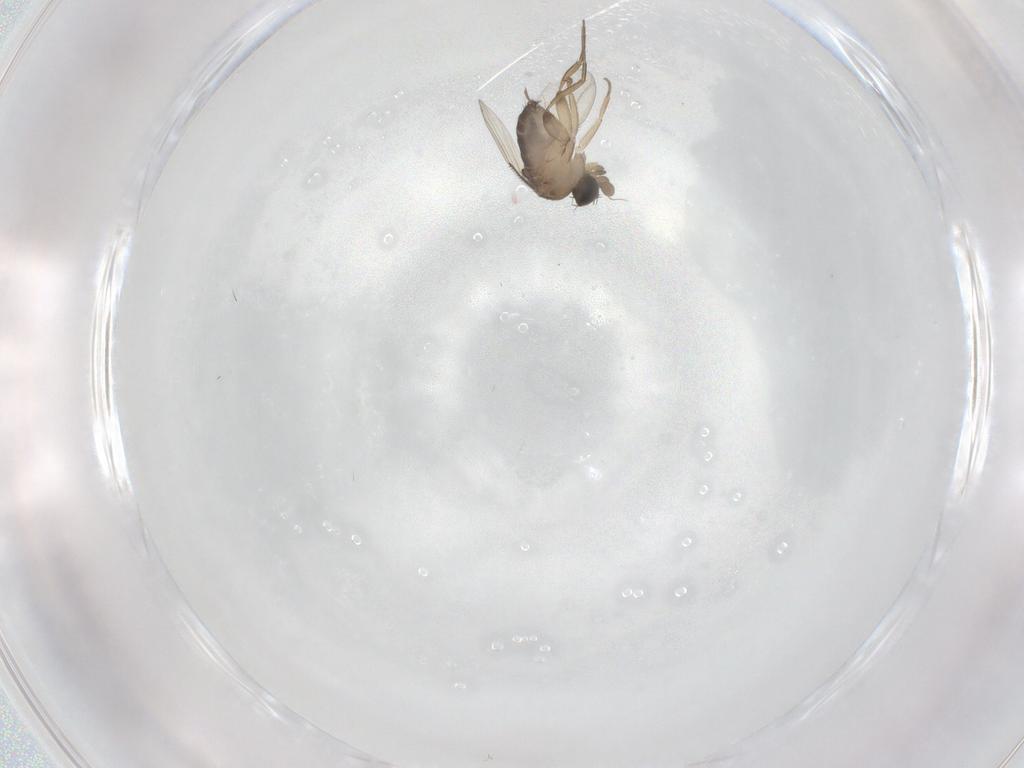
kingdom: Animalia
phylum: Arthropoda
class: Insecta
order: Diptera
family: Phoridae
